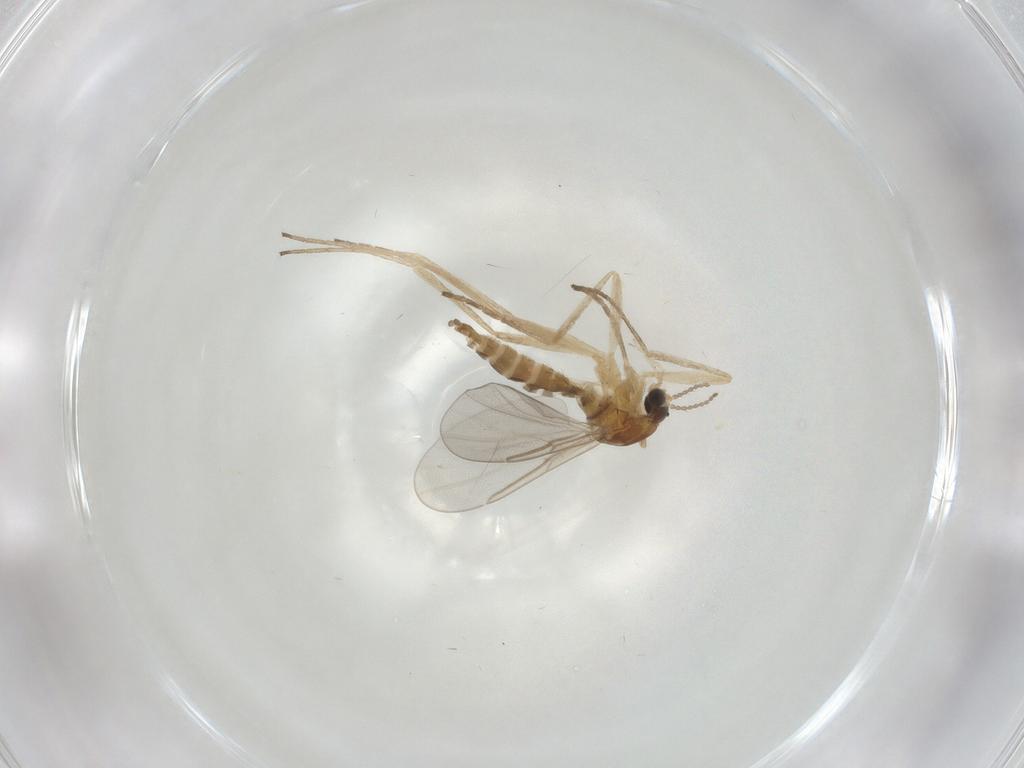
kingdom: Animalia
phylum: Arthropoda
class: Insecta
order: Diptera
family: Cecidomyiidae
